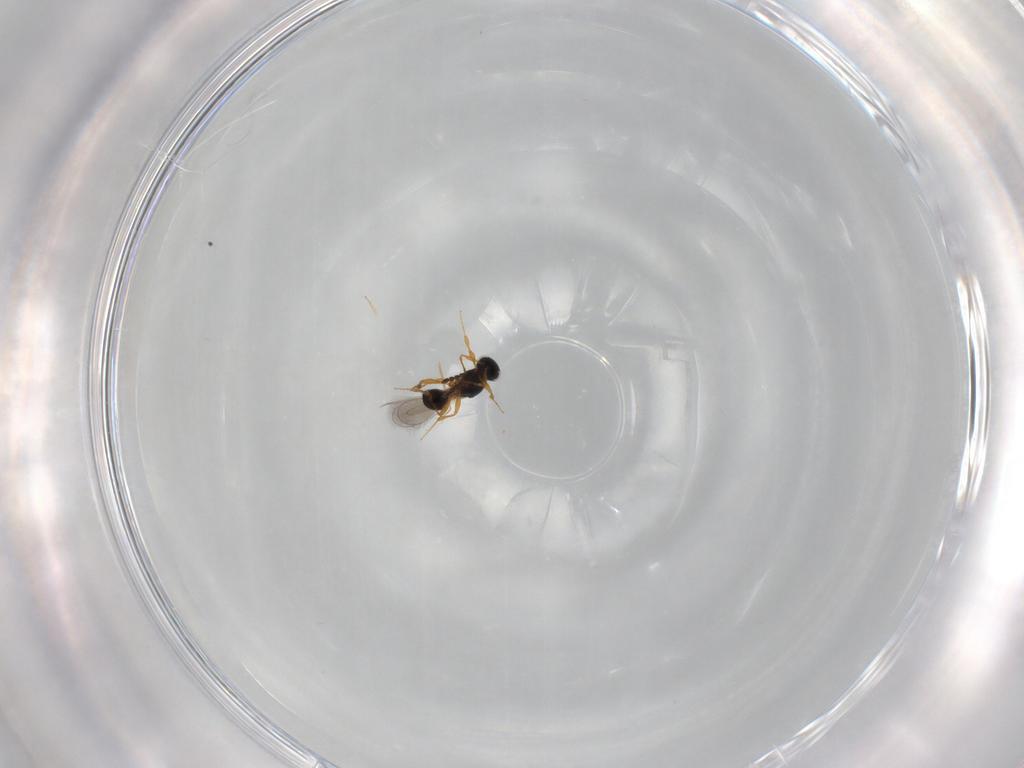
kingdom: Animalia
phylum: Arthropoda
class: Insecta
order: Hymenoptera
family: Platygastridae
